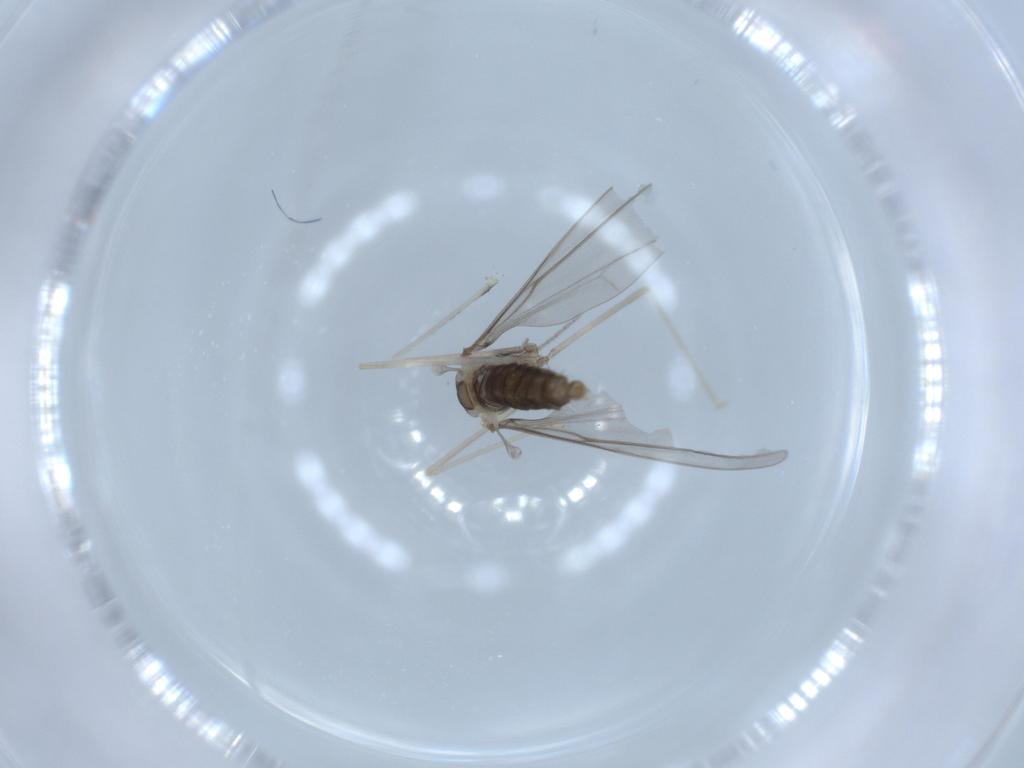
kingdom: Animalia
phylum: Arthropoda
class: Insecta
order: Diptera
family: Cecidomyiidae
